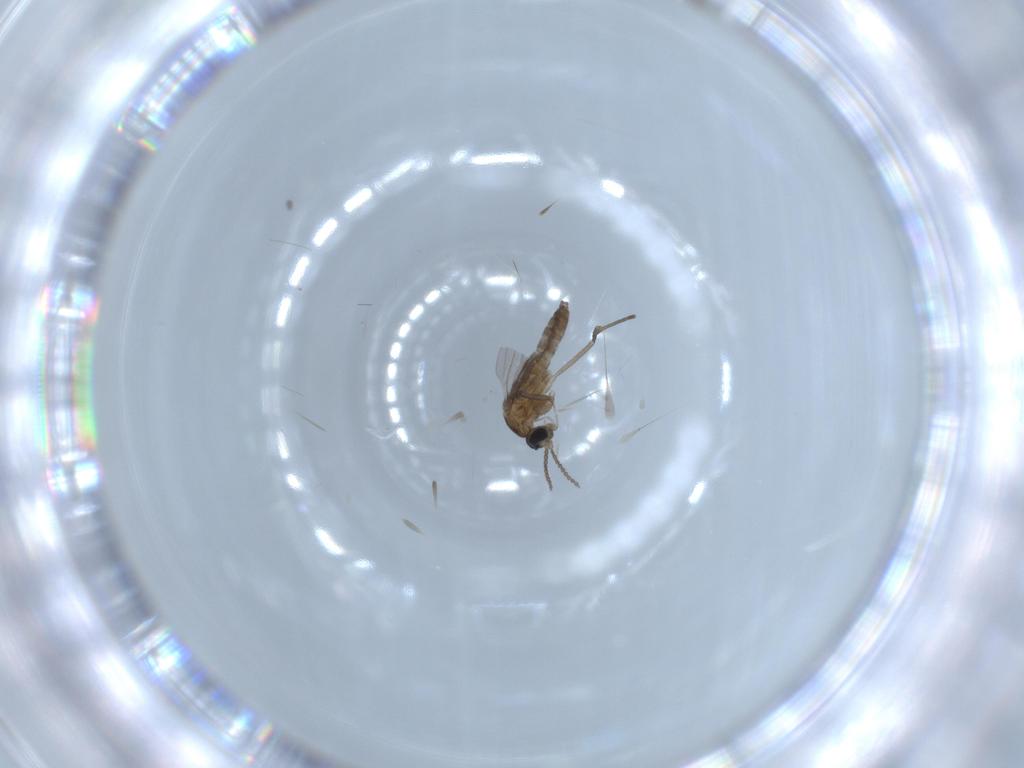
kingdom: Animalia
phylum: Arthropoda
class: Insecta
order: Diptera
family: Cecidomyiidae
